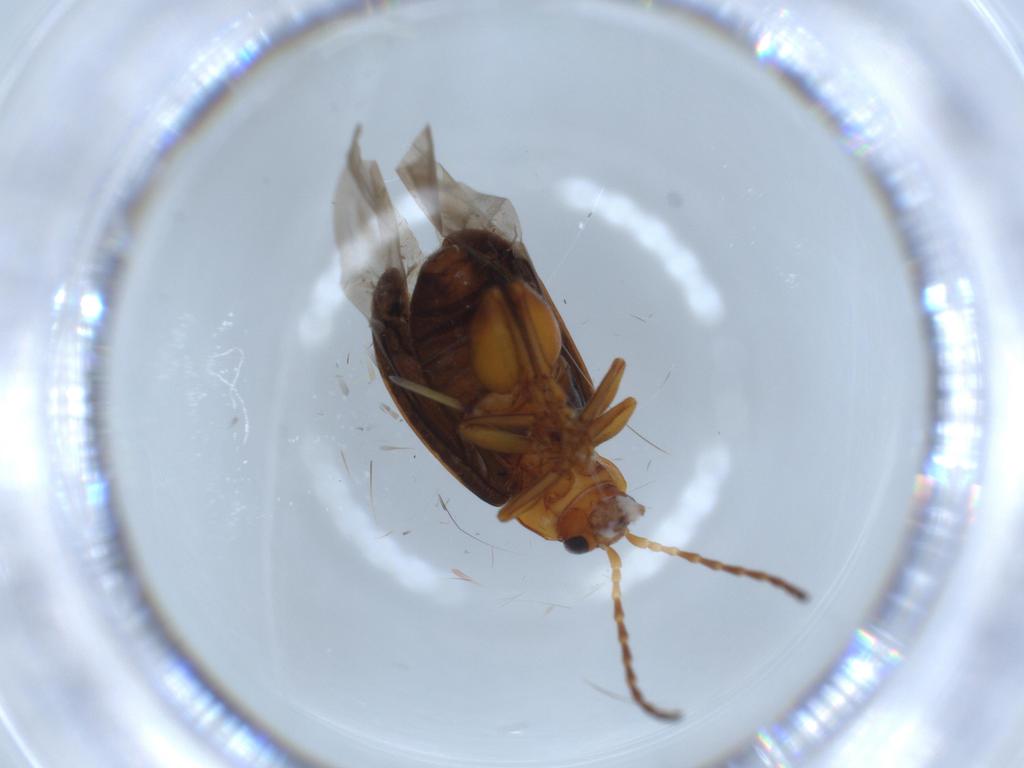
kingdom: Animalia
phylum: Arthropoda
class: Insecta
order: Coleoptera
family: Chrysomelidae
